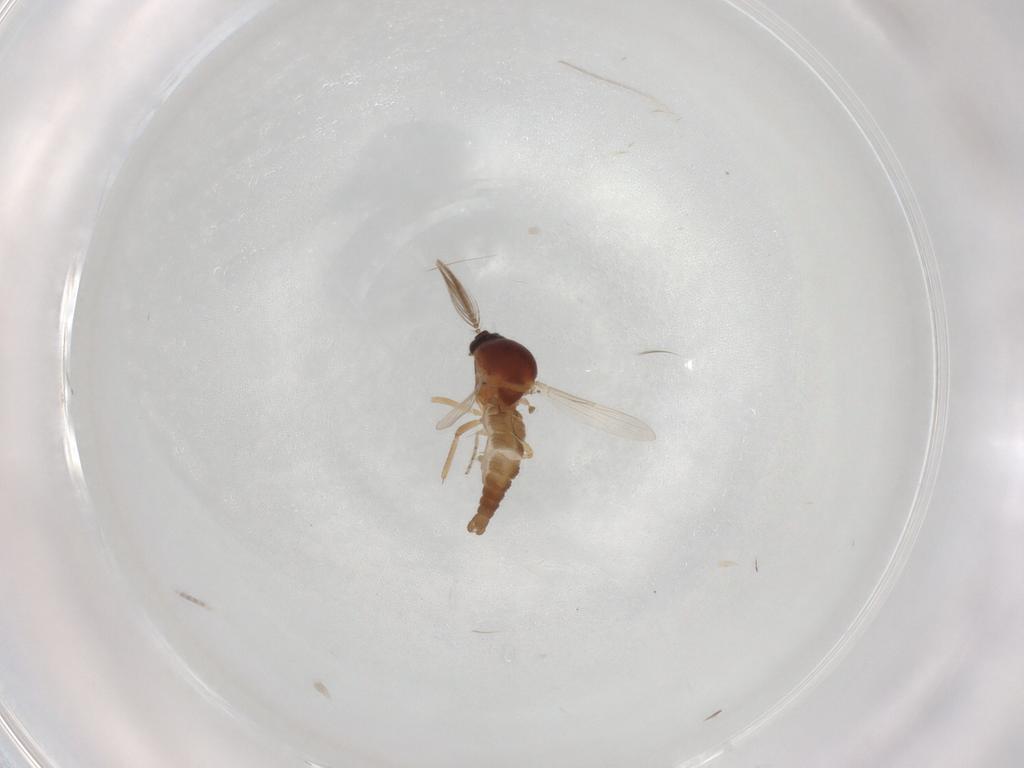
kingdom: Animalia
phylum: Arthropoda
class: Insecta
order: Diptera
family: Ceratopogonidae
